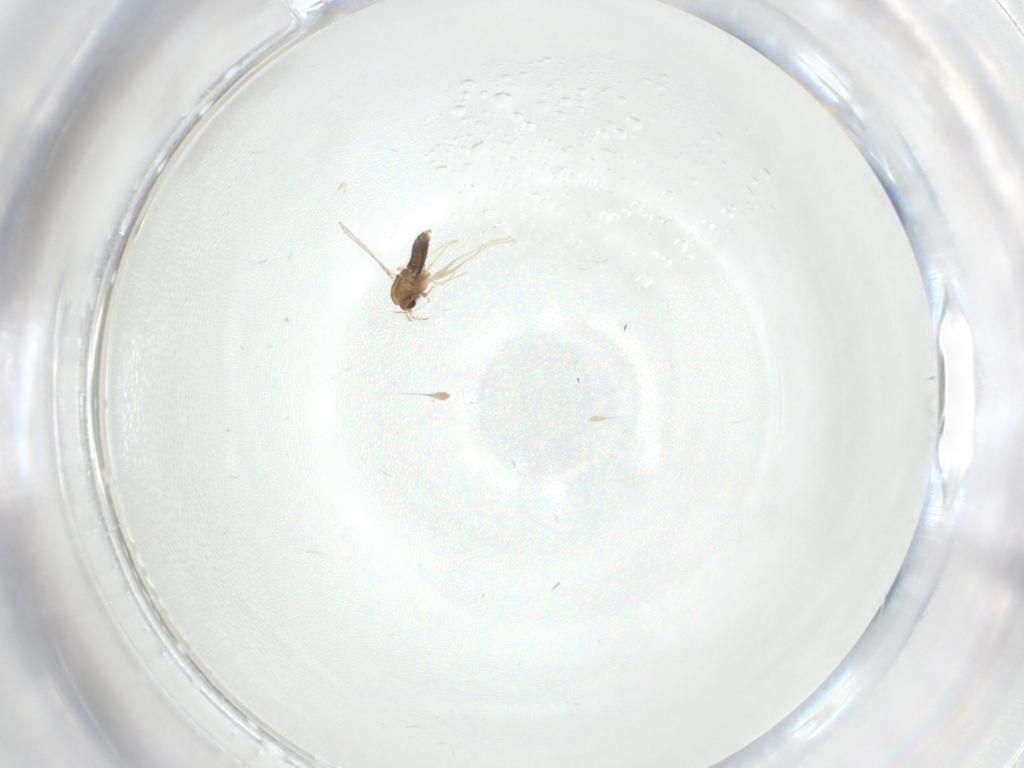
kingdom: Animalia
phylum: Arthropoda
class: Insecta
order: Diptera
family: Chironomidae
